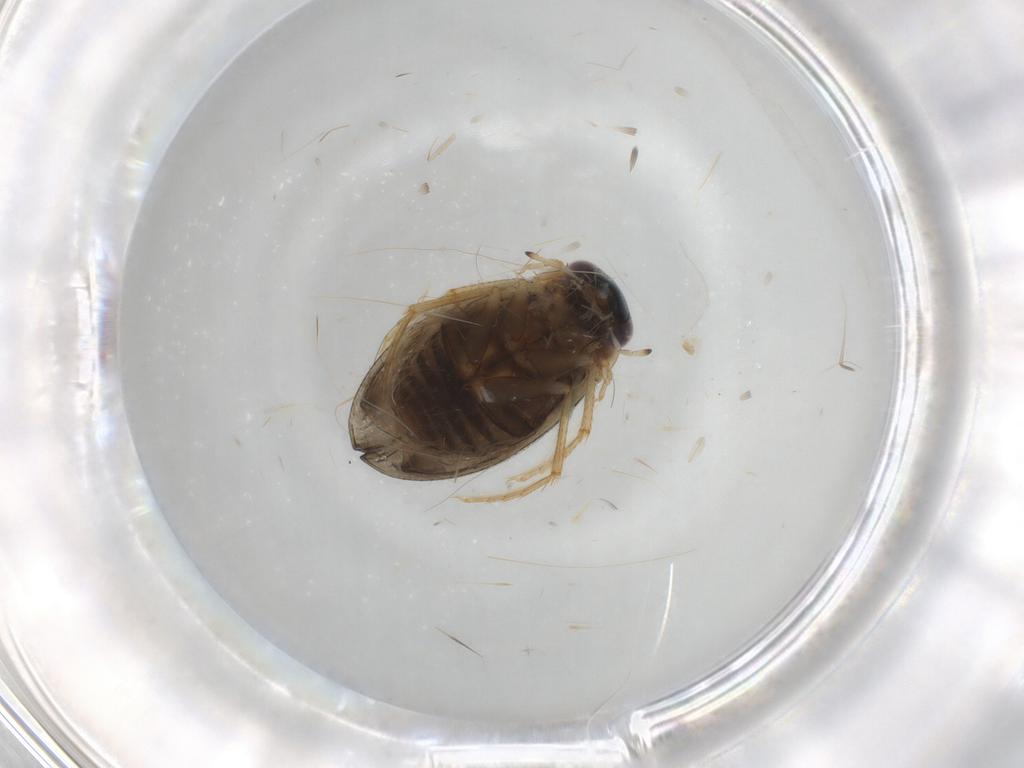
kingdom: Animalia
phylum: Arthropoda
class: Insecta
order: Coleoptera
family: Hydrophilidae
